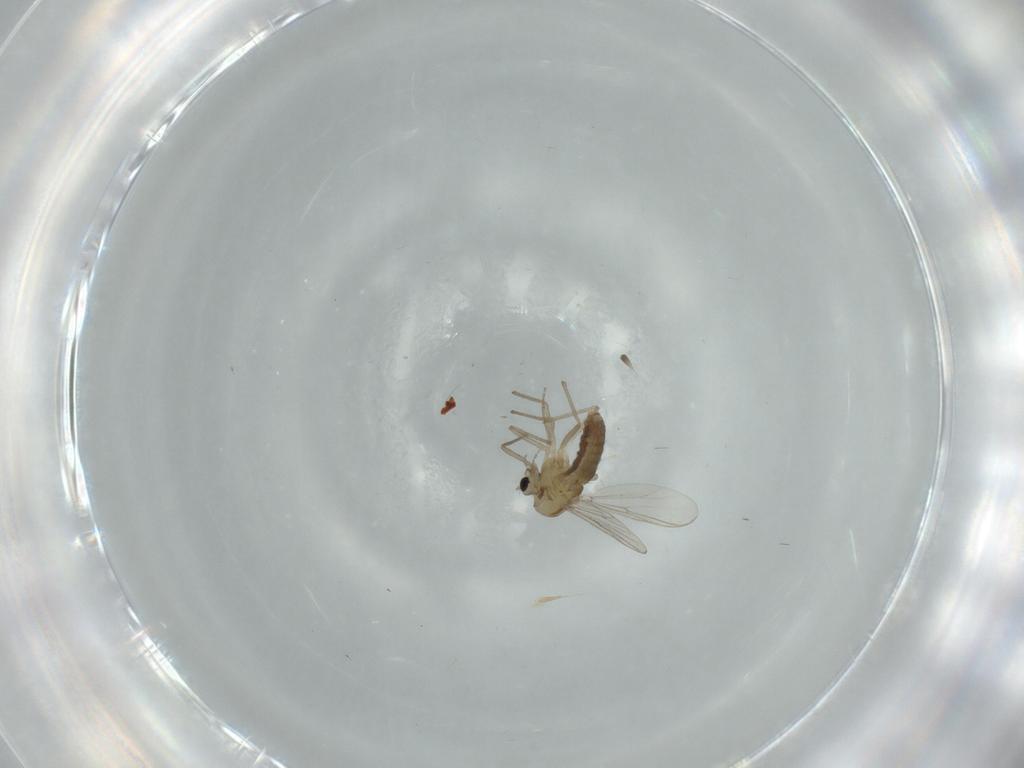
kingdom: Animalia
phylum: Arthropoda
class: Insecta
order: Diptera
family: Chironomidae
